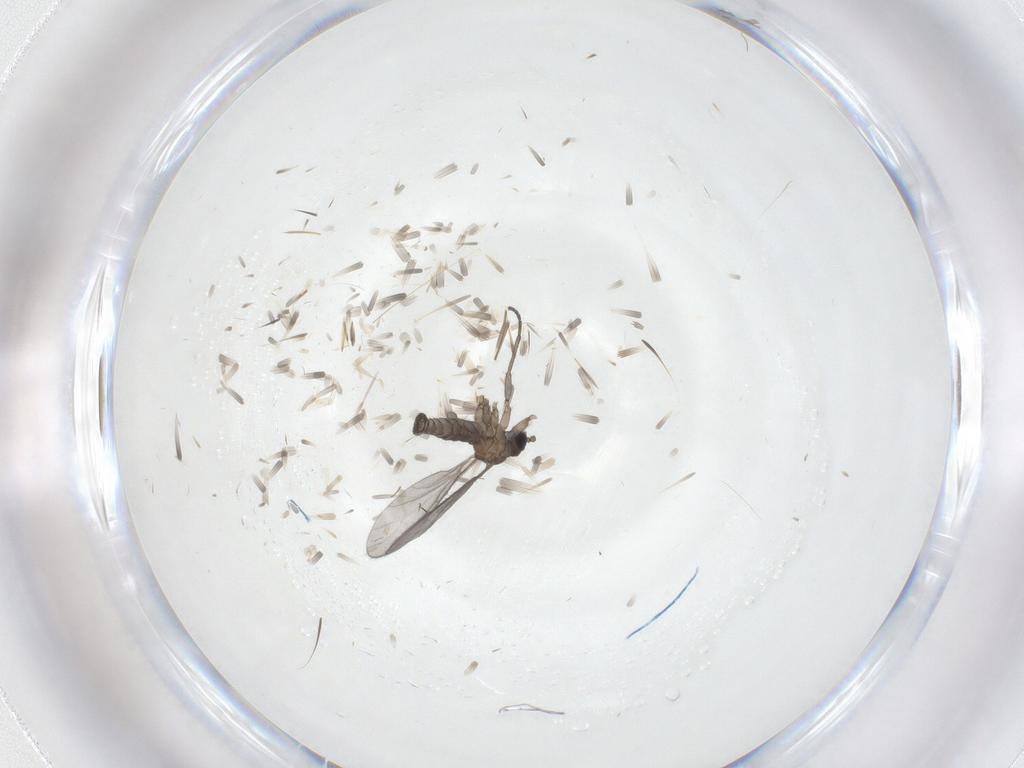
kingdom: Animalia
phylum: Arthropoda
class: Insecta
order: Diptera
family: Sciaridae
